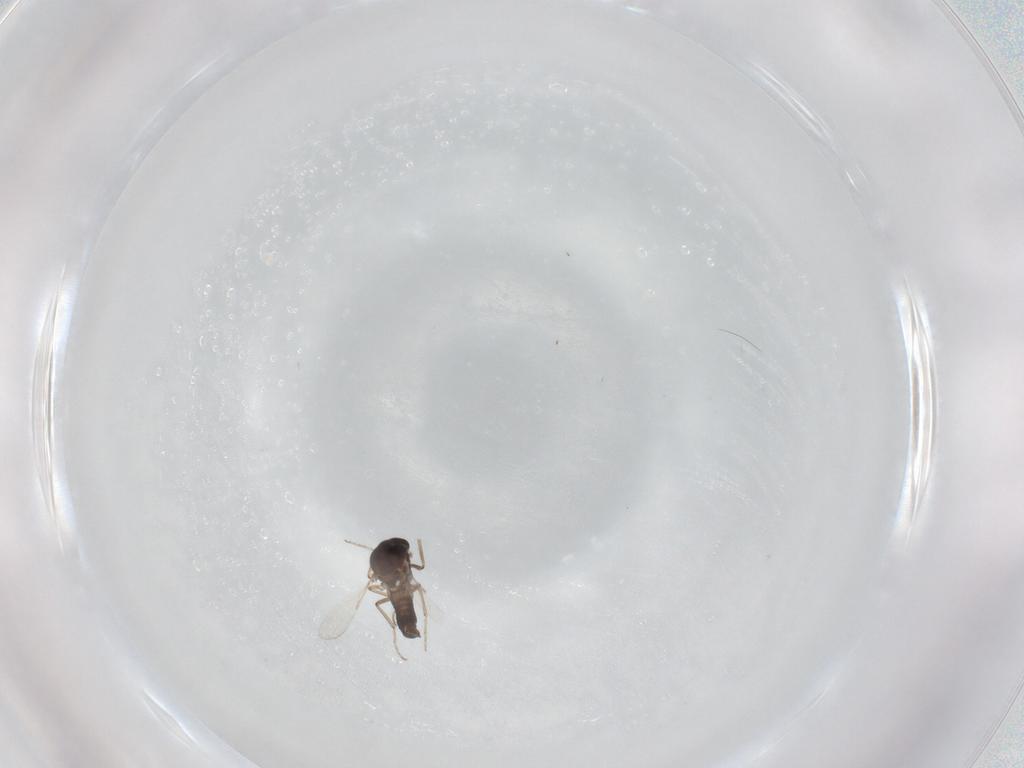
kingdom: Animalia
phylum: Arthropoda
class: Insecta
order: Diptera
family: Ceratopogonidae
